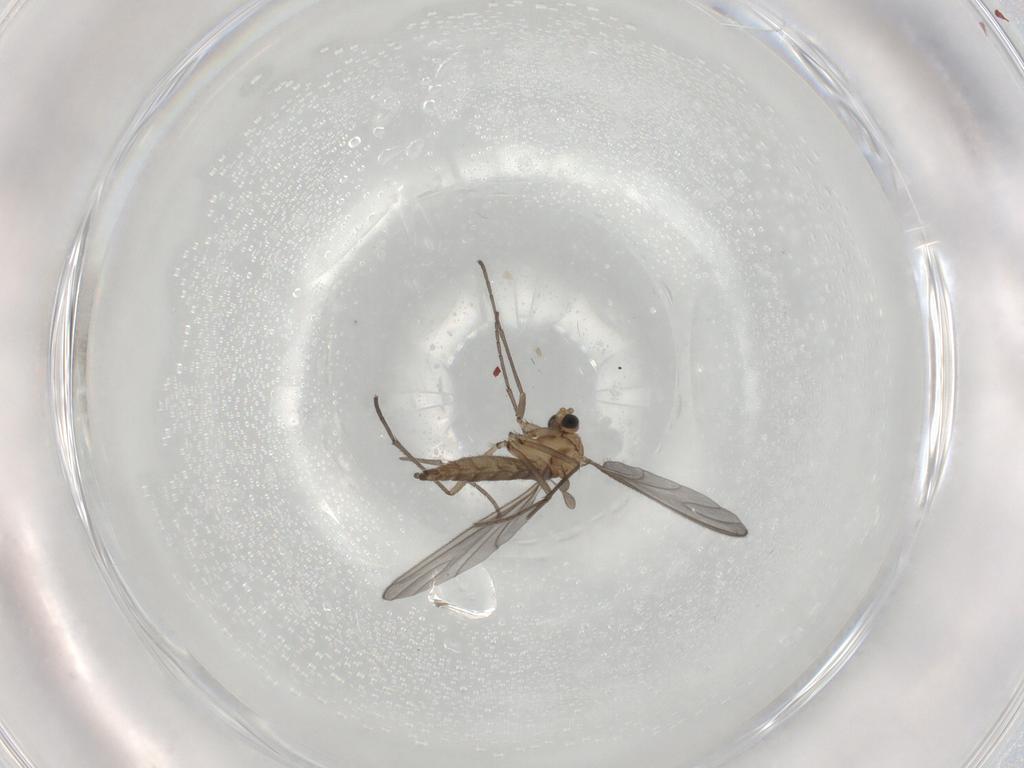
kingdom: Animalia
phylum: Arthropoda
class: Insecta
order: Diptera
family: Sciaridae
